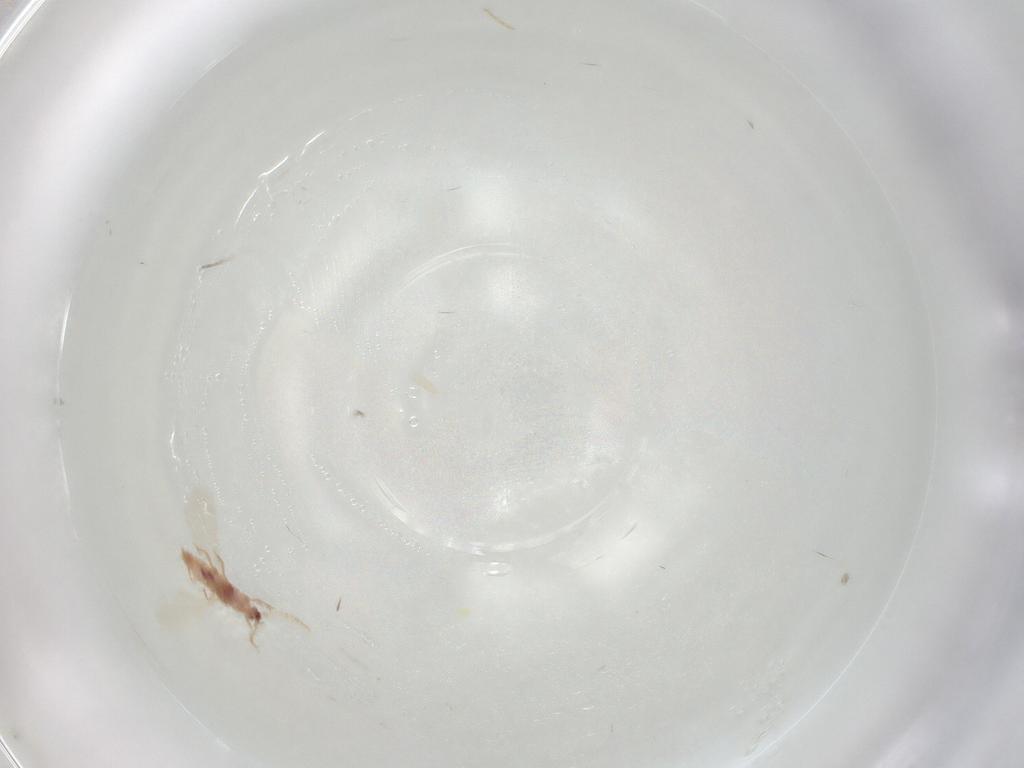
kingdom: Animalia
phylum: Arthropoda
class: Insecta
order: Hemiptera
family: Pseudococcidae
